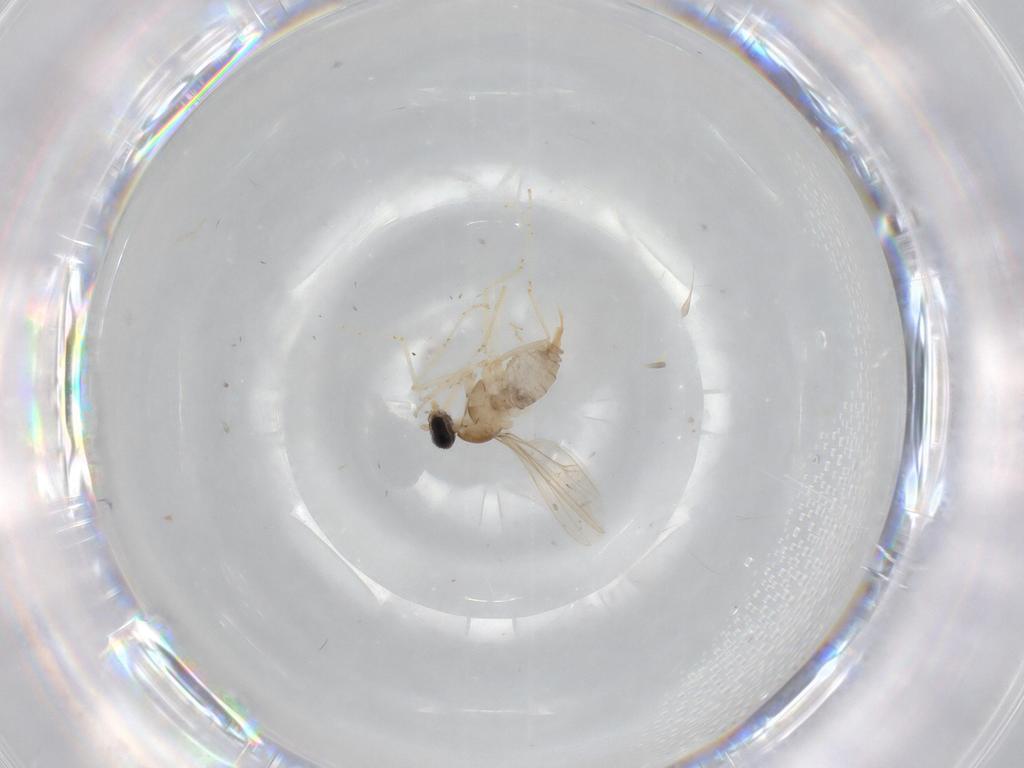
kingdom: Animalia
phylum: Arthropoda
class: Insecta
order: Diptera
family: Cecidomyiidae
